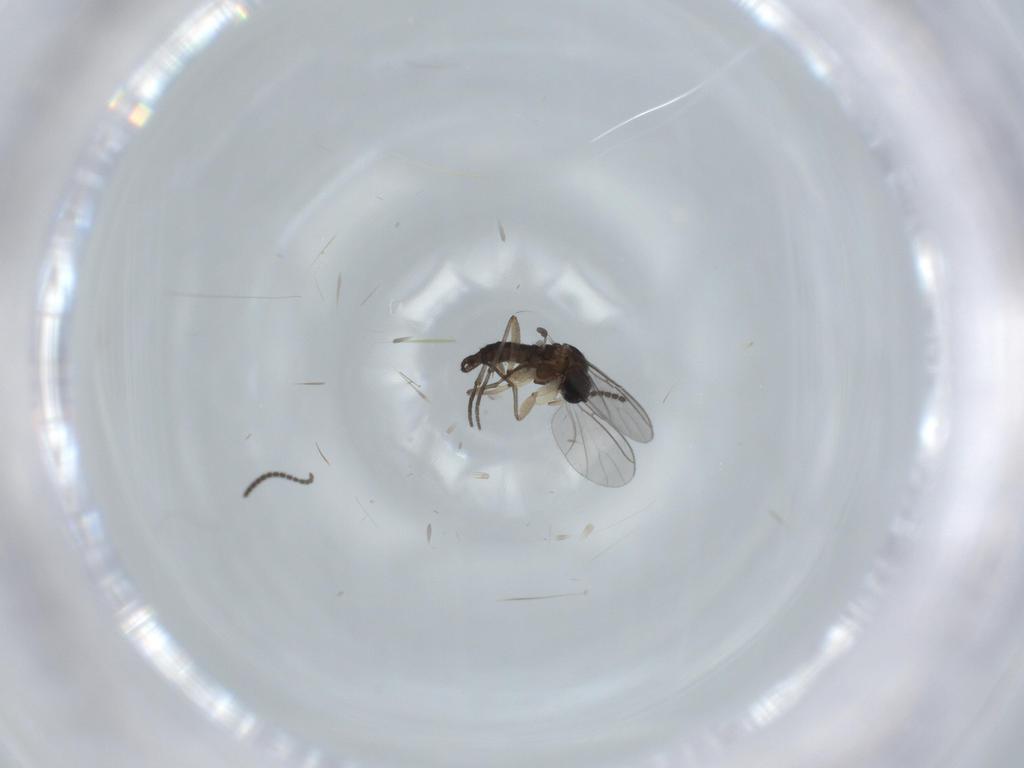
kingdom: Animalia
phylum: Arthropoda
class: Insecta
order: Diptera
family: Sciaridae
